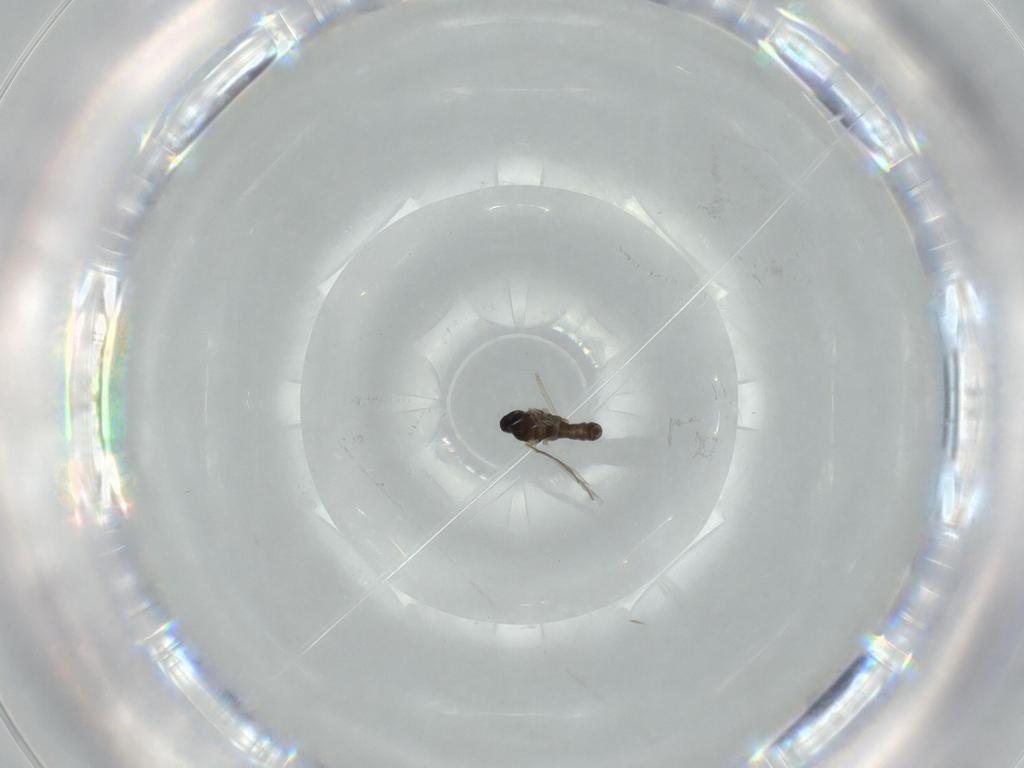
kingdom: Animalia
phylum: Arthropoda
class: Insecta
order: Diptera
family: Cecidomyiidae
